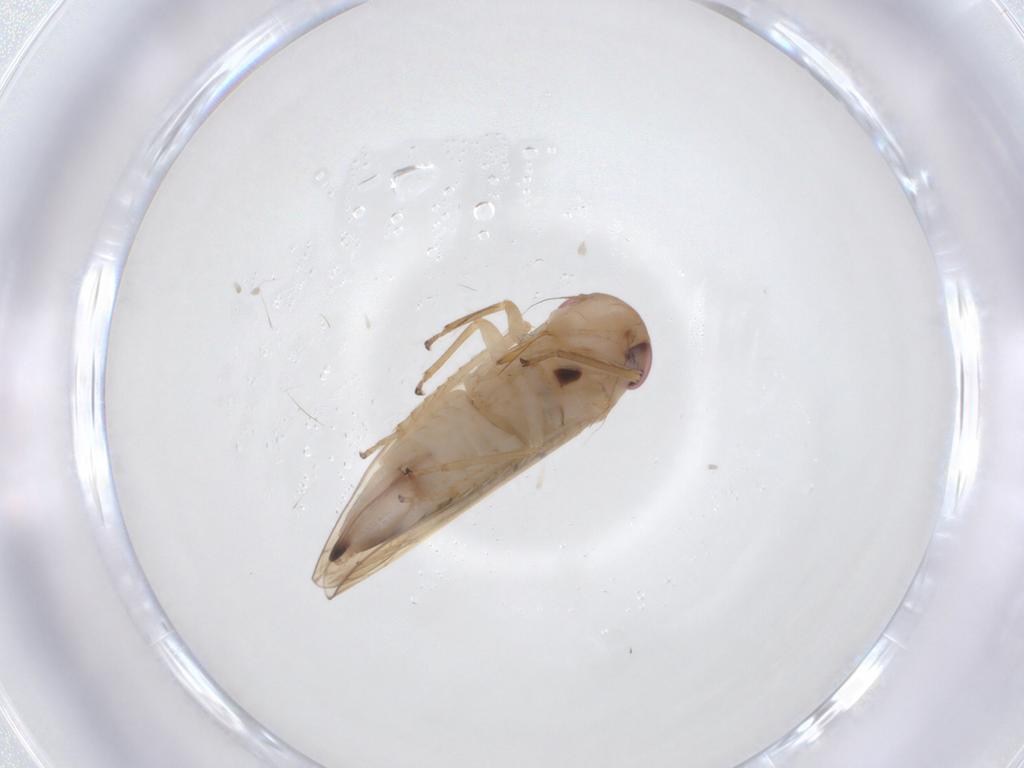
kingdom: Animalia
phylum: Arthropoda
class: Insecta
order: Hemiptera
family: Cicadellidae
